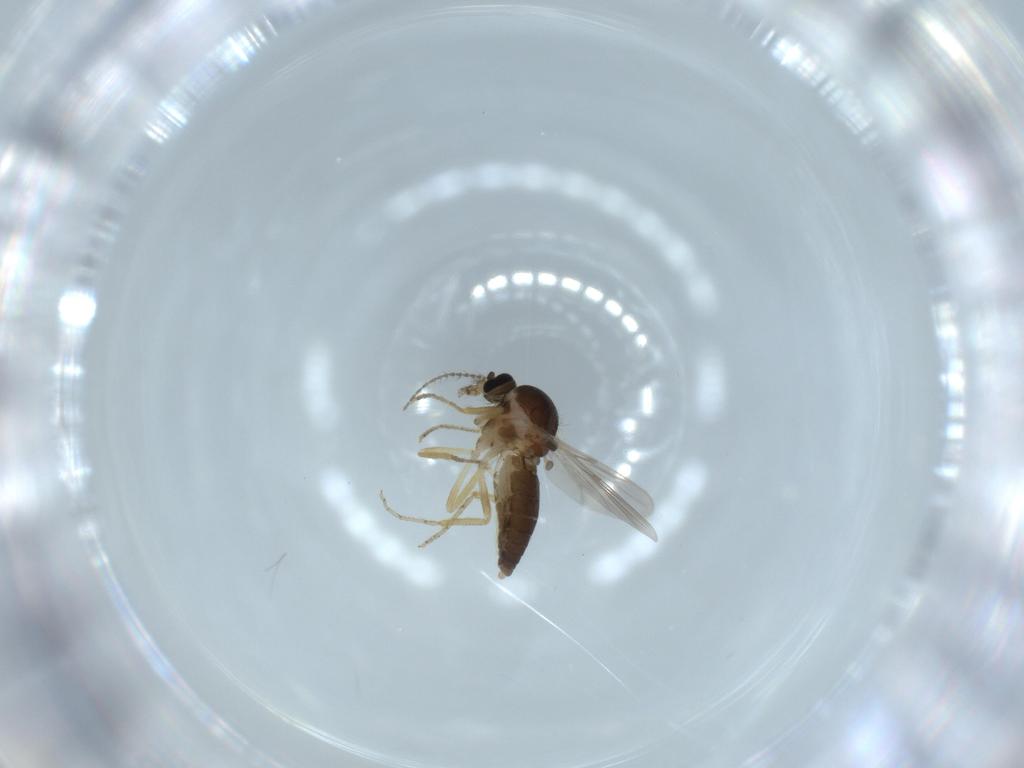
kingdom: Animalia
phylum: Arthropoda
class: Insecta
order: Diptera
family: Ceratopogonidae
